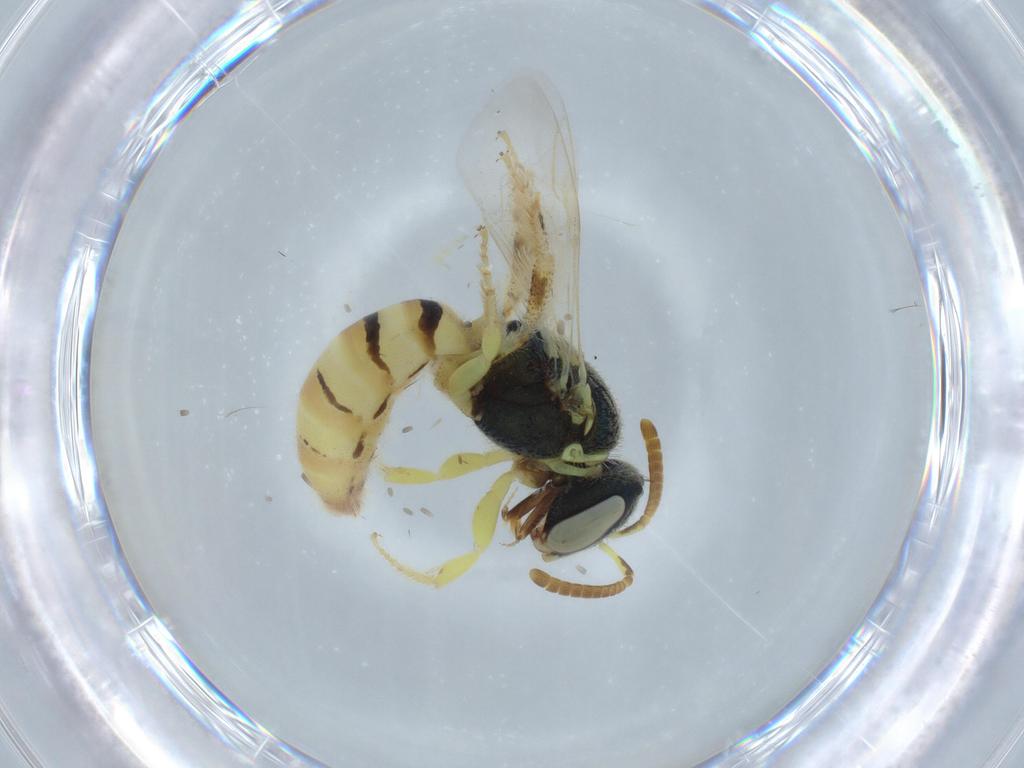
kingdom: Animalia
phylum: Arthropoda
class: Insecta
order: Hymenoptera
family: Halictidae
